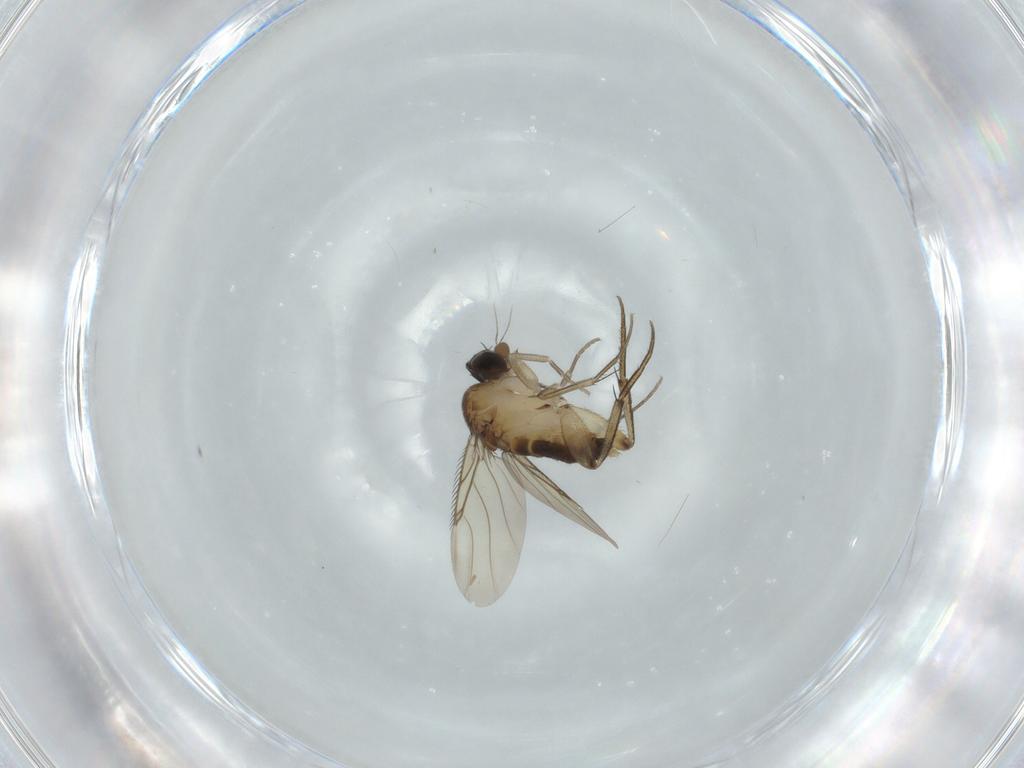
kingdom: Animalia
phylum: Arthropoda
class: Insecta
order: Diptera
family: Phoridae
